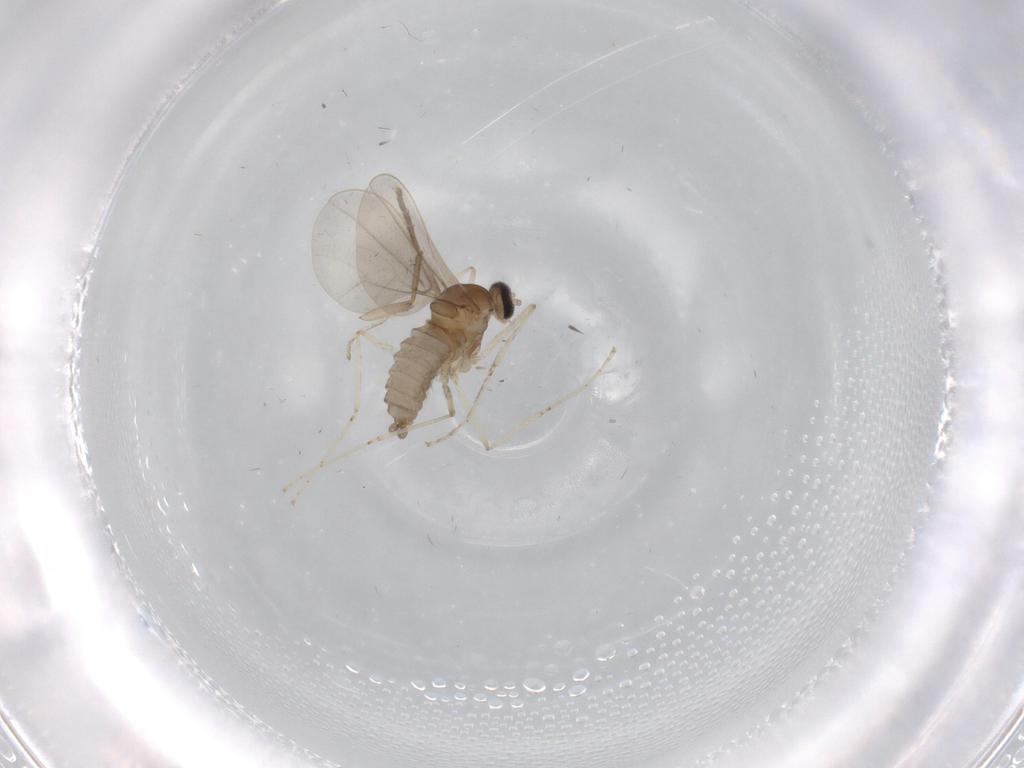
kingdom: Animalia
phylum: Arthropoda
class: Insecta
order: Diptera
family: Cecidomyiidae
